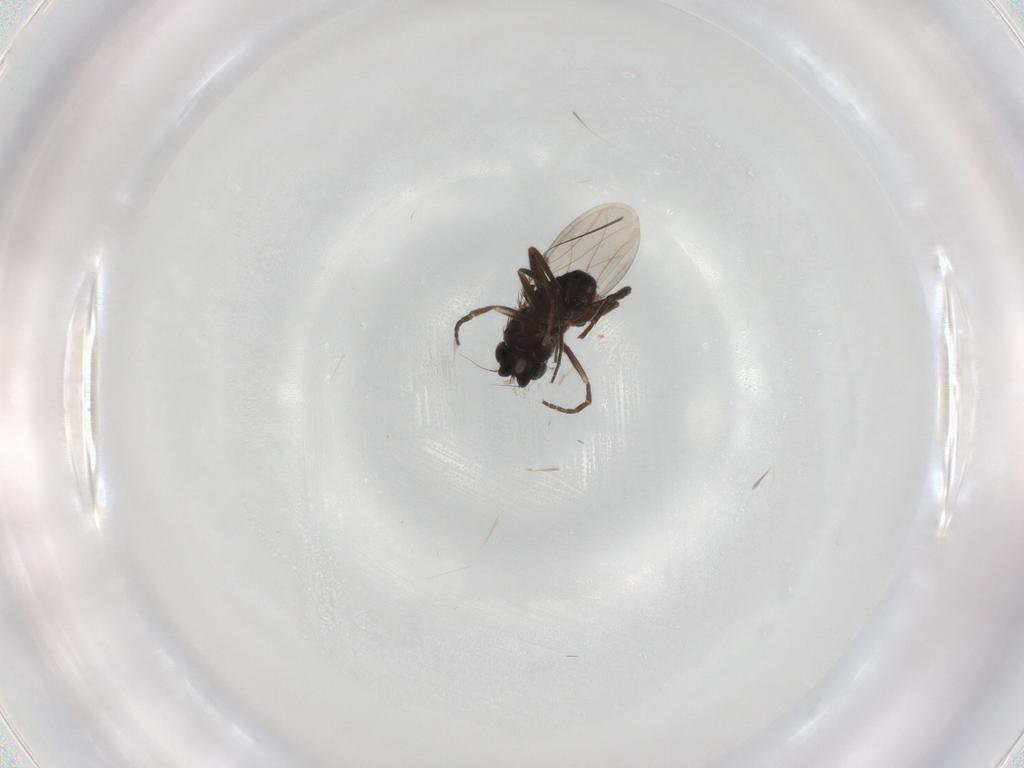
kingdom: Animalia
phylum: Arthropoda
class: Insecta
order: Diptera
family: Phoridae
